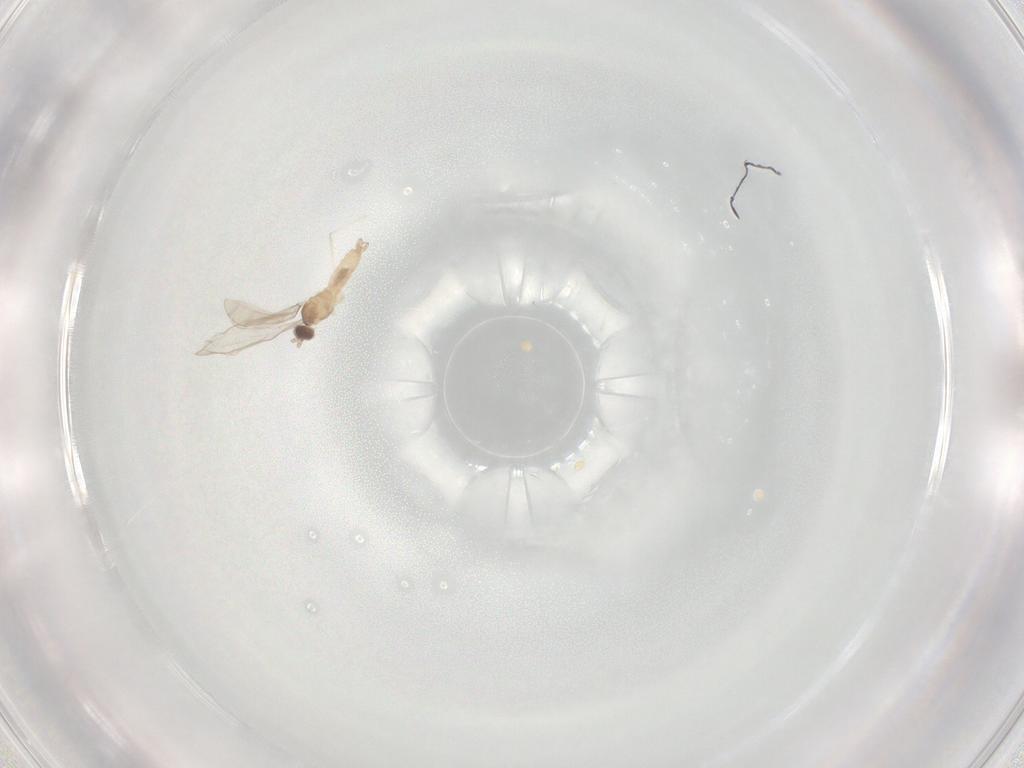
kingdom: Animalia
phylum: Arthropoda
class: Insecta
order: Diptera
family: Cecidomyiidae
